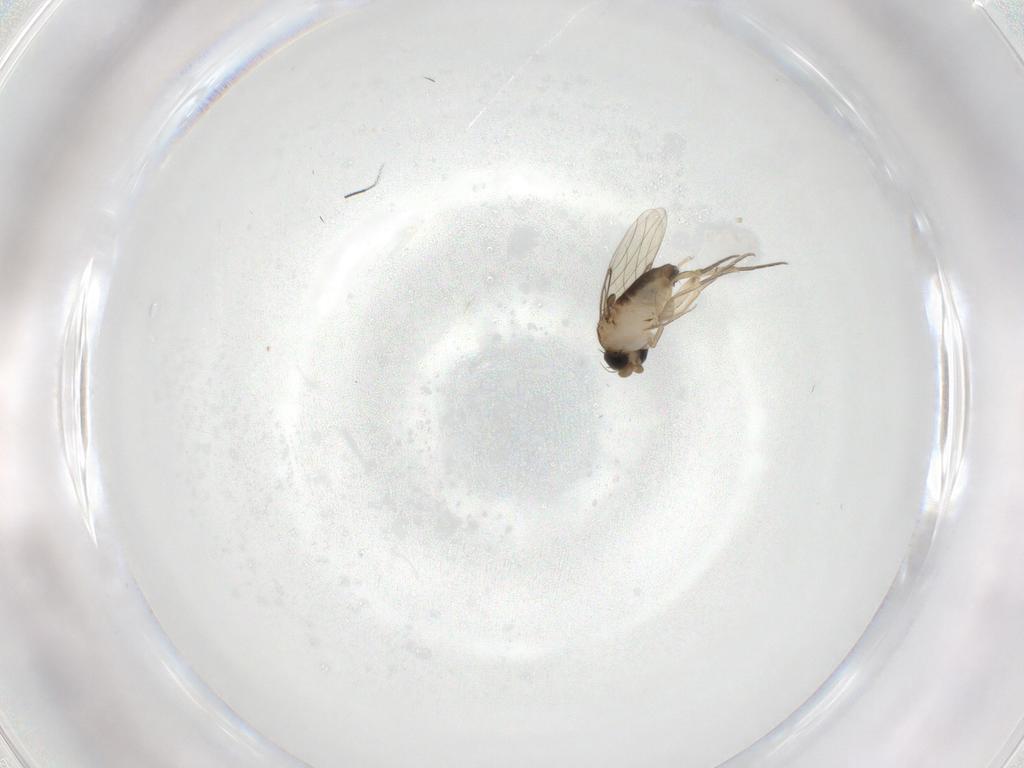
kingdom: Animalia
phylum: Arthropoda
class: Insecta
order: Diptera
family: Phoridae
